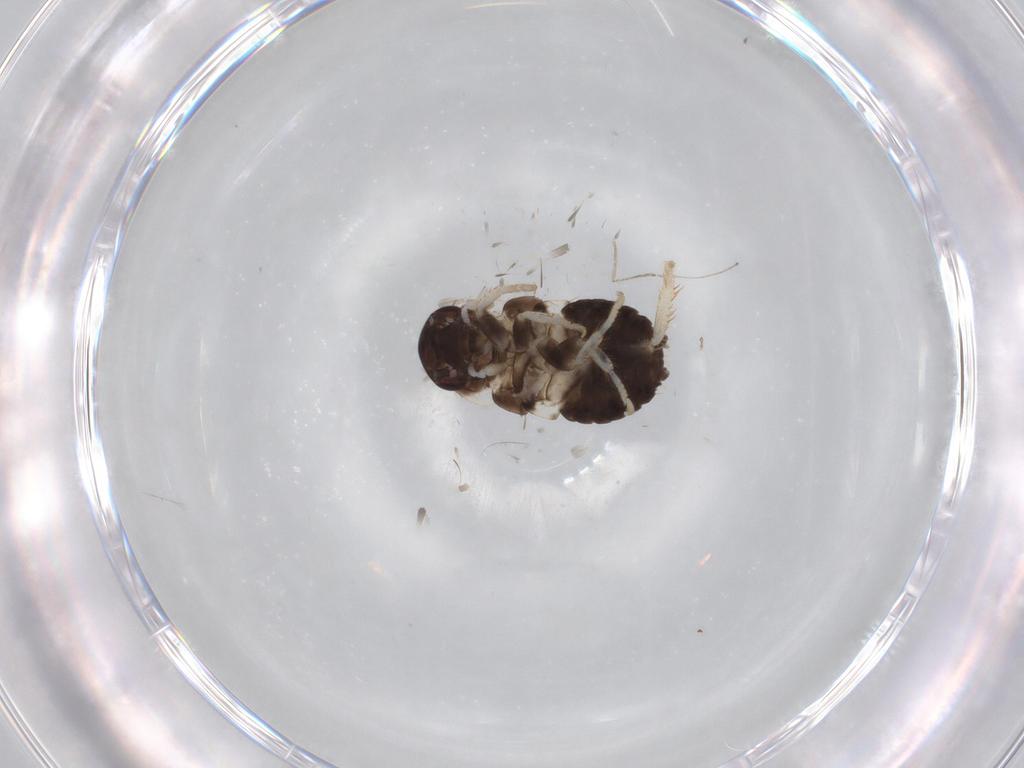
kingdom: Animalia
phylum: Arthropoda
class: Insecta
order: Blattodea
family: Ectobiidae
